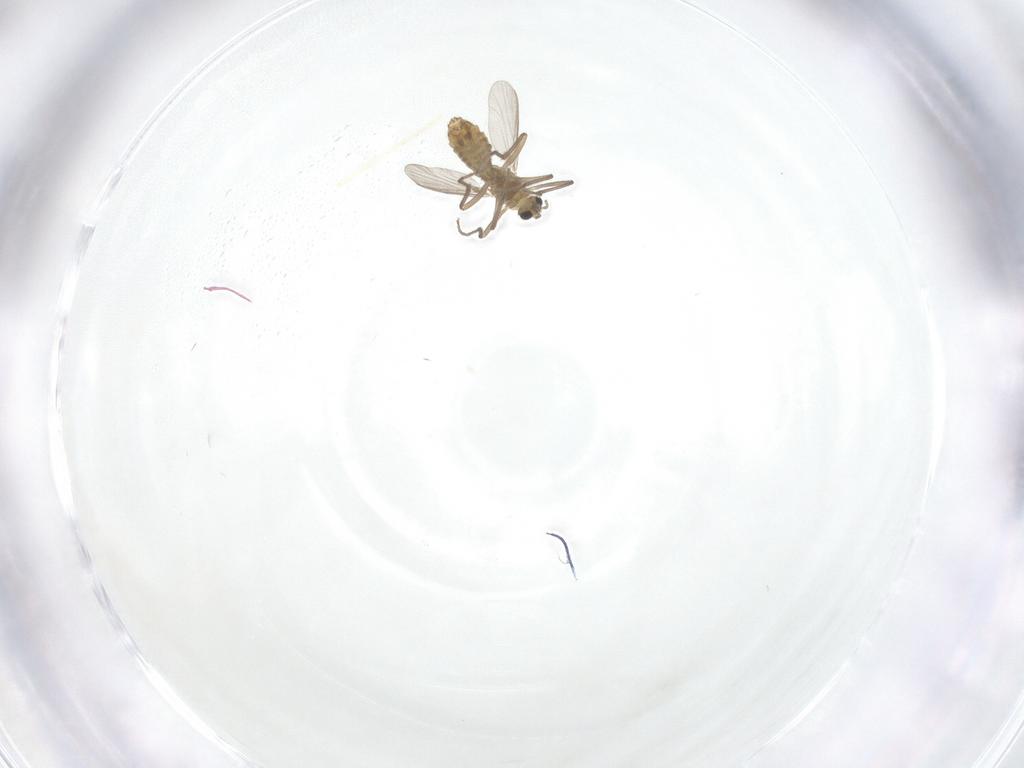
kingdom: Animalia
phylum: Arthropoda
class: Insecta
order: Diptera
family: Chironomidae
